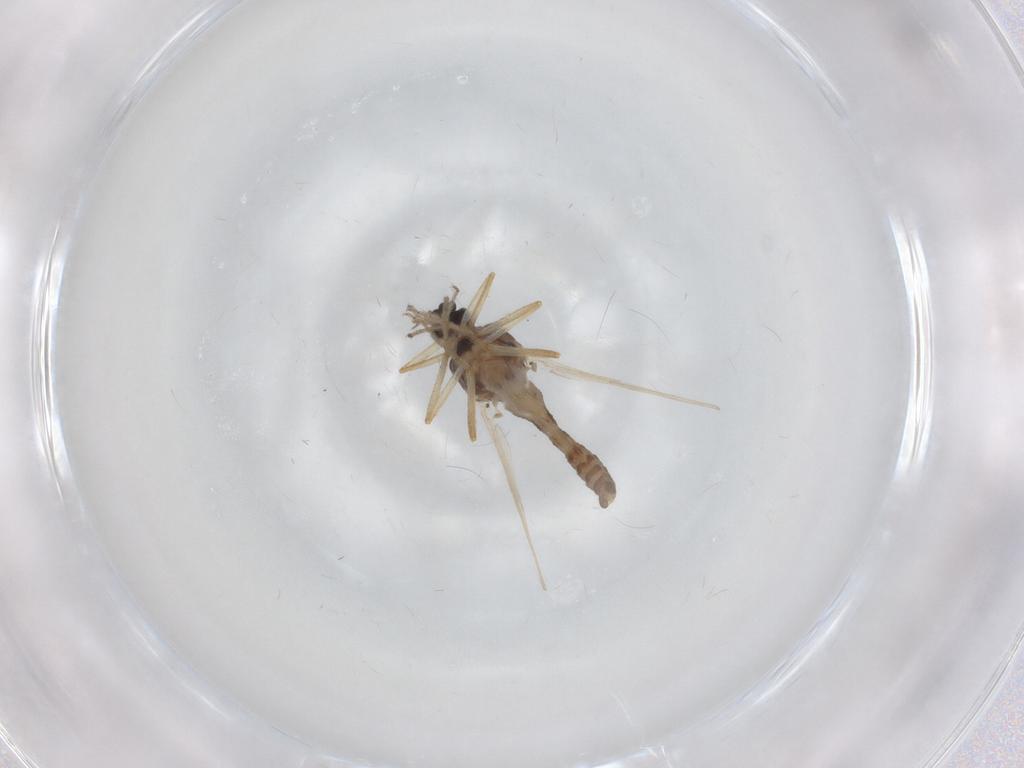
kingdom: Animalia
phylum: Arthropoda
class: Insecta
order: Diptera
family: Ceratopogonidae
